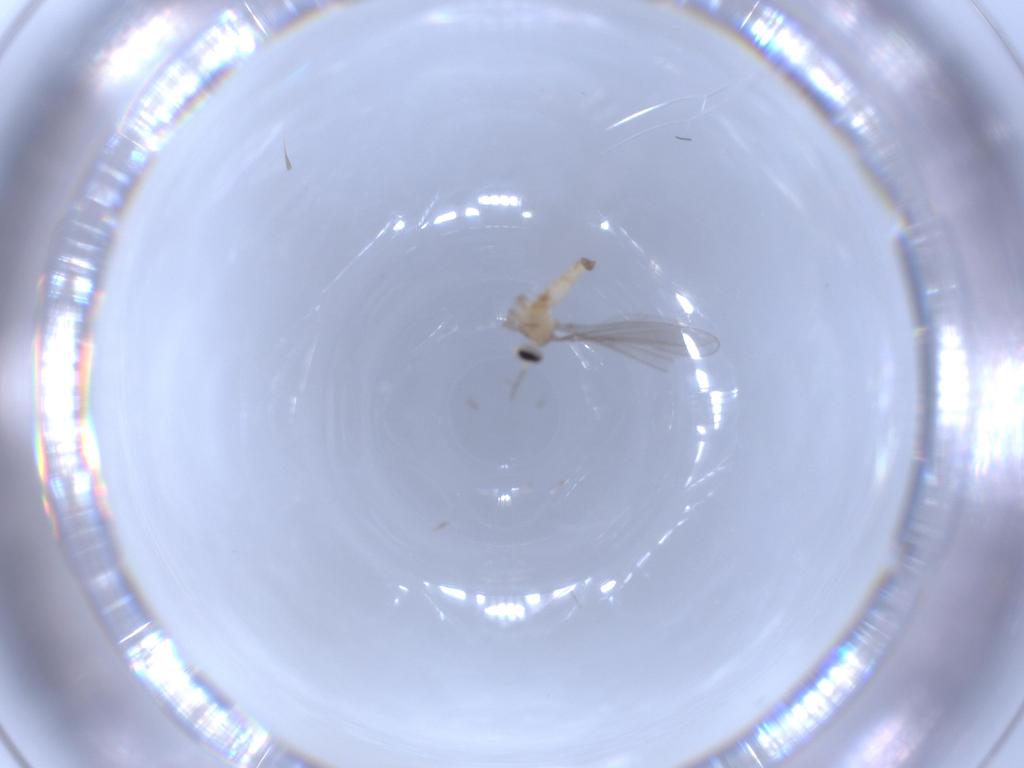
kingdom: Animalia
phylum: Arthropoda
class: Insecta
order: Diptera
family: Cecidomyiidae
